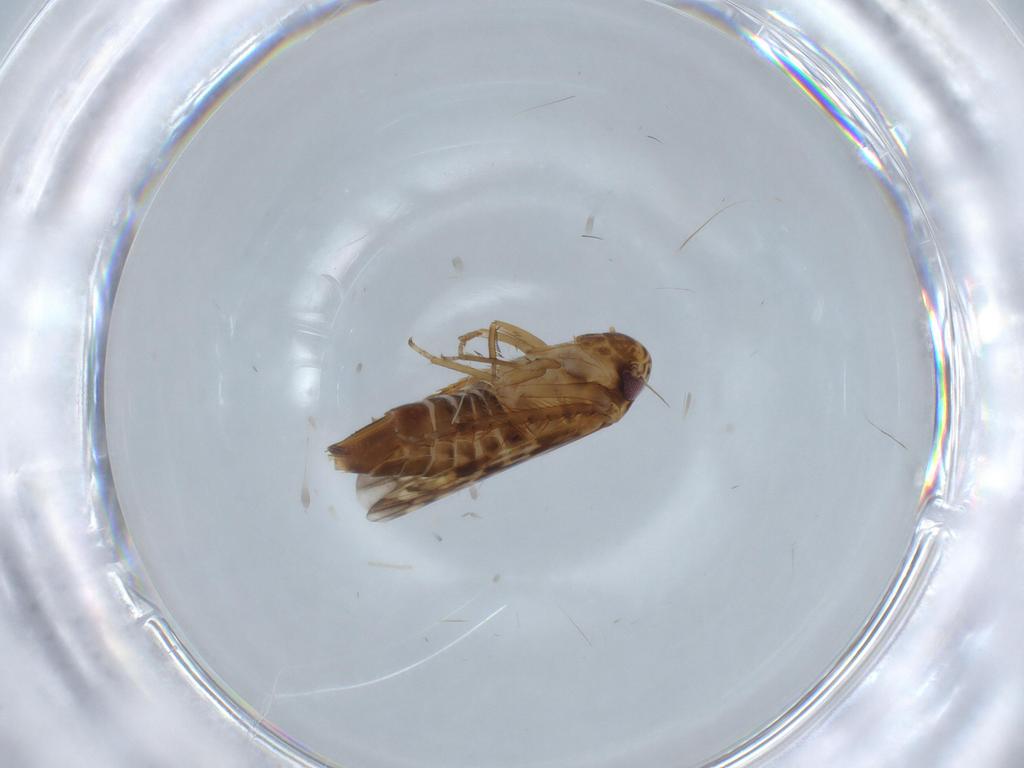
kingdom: Animalia
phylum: Arthropoda
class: Insecta
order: Hemiptera
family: Cicadellidae
